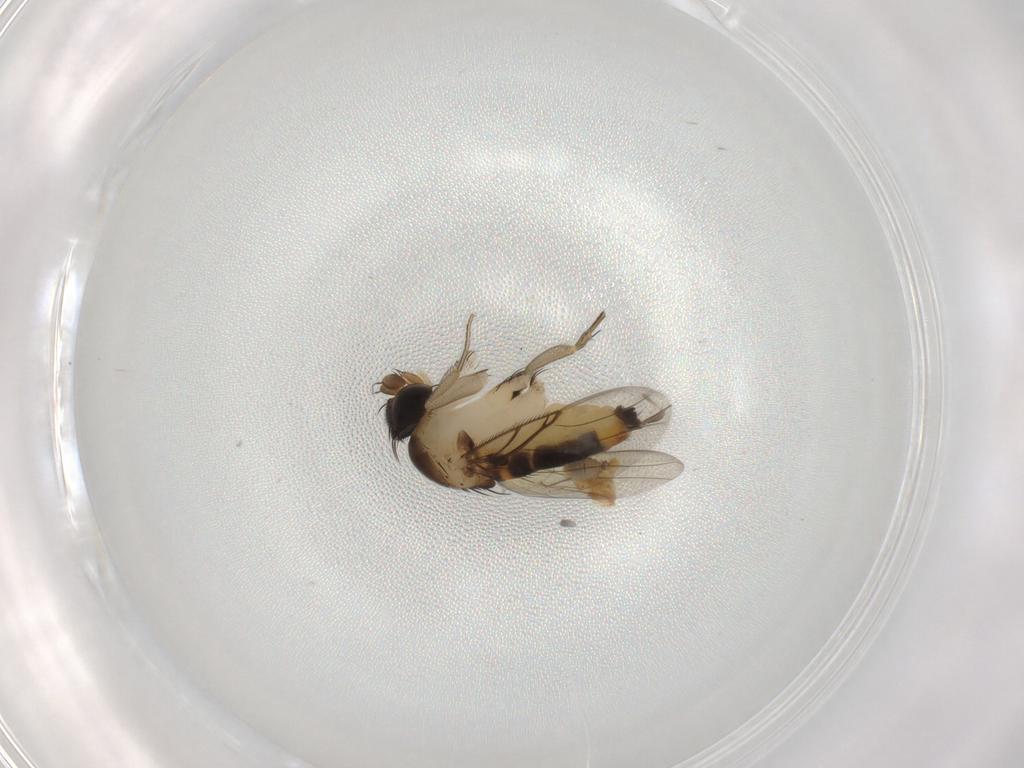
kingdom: Animalia
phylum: Arthropoda
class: Insecta
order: Diptera
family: Phoridae
